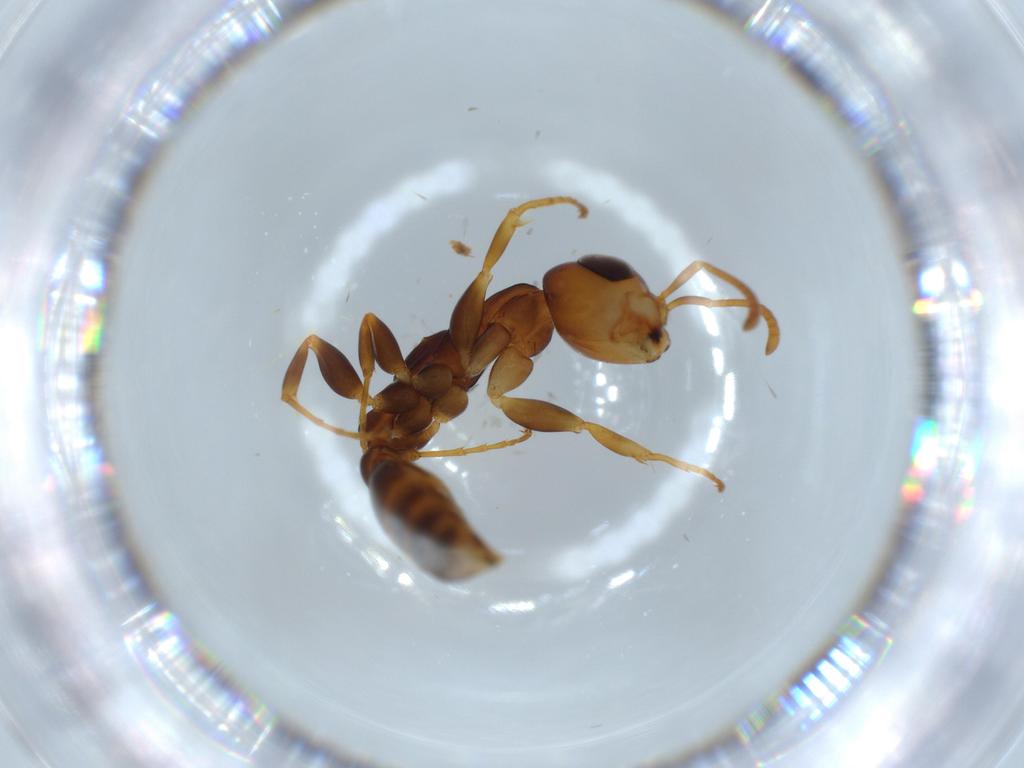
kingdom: Animalia
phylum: Arthropoda
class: Insecta
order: Hymenoptera
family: Formicidae
